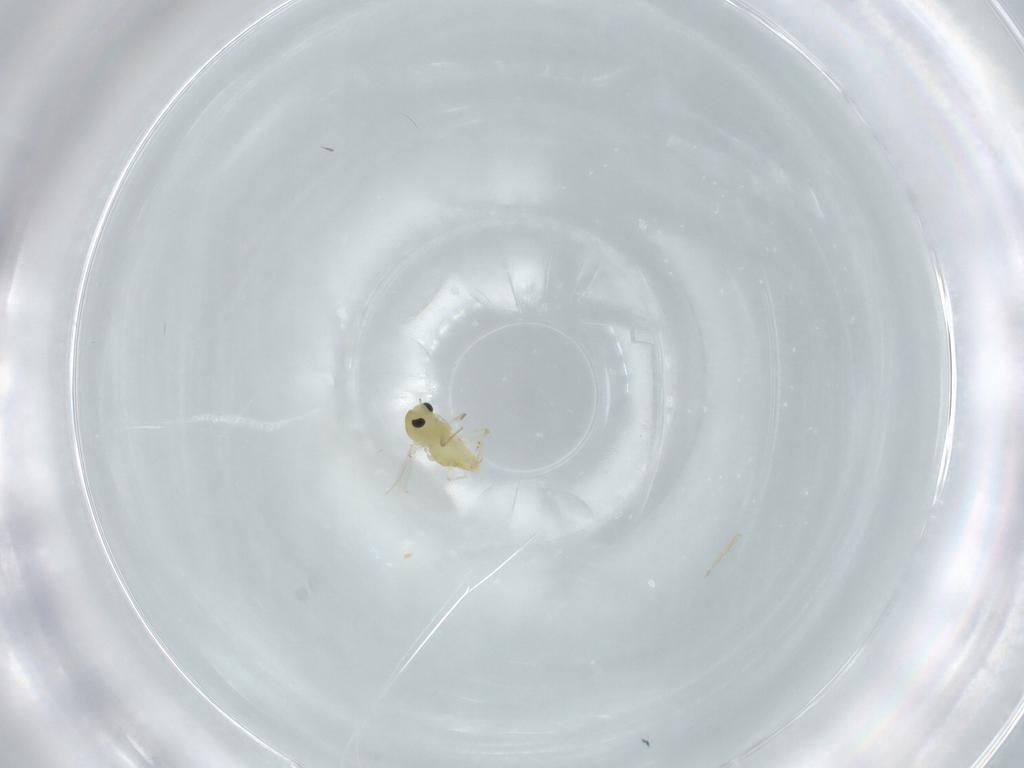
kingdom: Animalia
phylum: Arthropoda
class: Insecta
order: Diptera
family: Chironomidae
